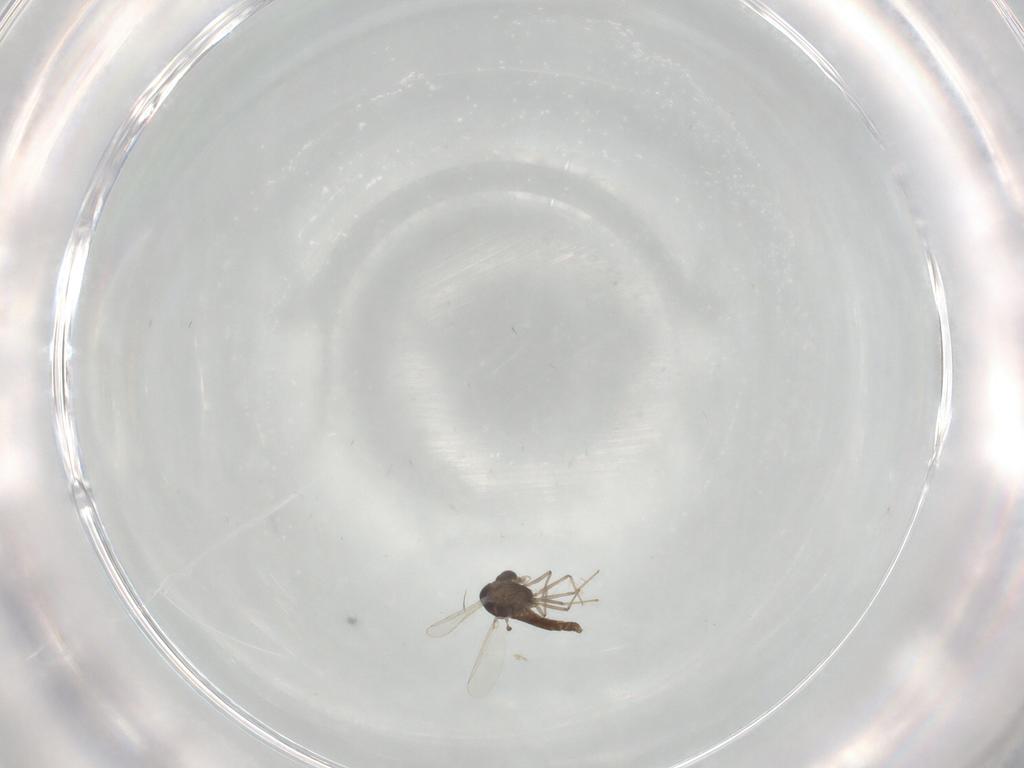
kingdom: Animalia
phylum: Arthropoda
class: Insecta
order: Diptera
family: Chironomidae
